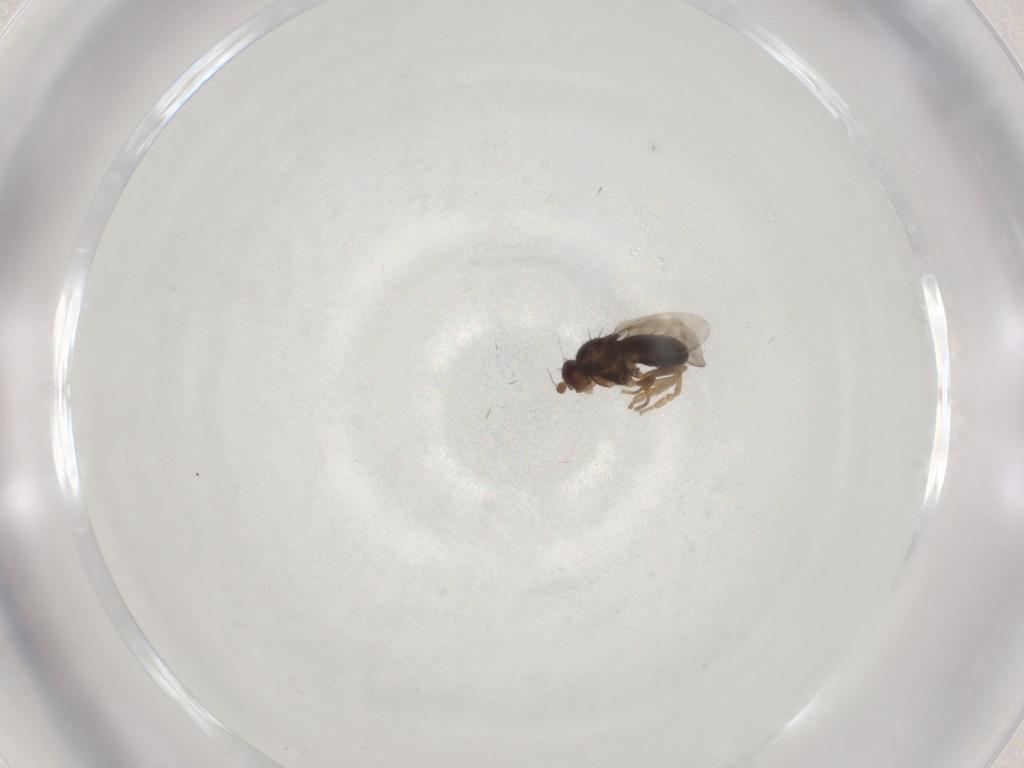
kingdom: Animalia
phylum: Arthropoda
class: Insecta
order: Diptera
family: Sphaeroceridae
